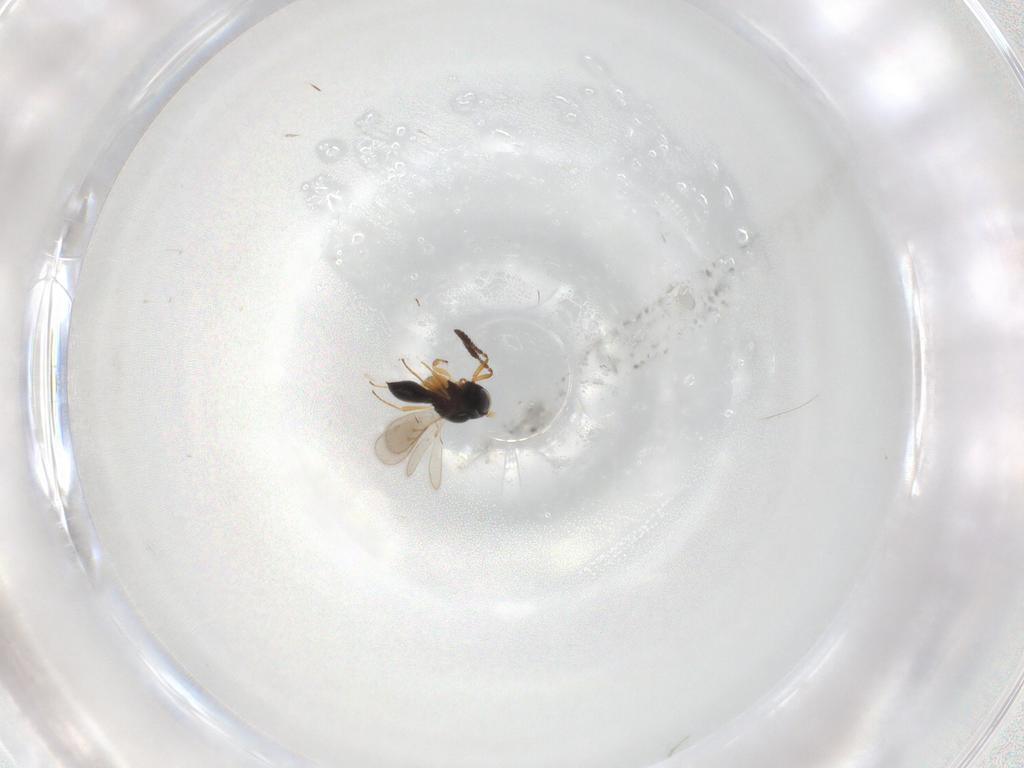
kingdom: Animalia
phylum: Arthropoda
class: Insecta
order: Hymenoptera
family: Scelionidae
